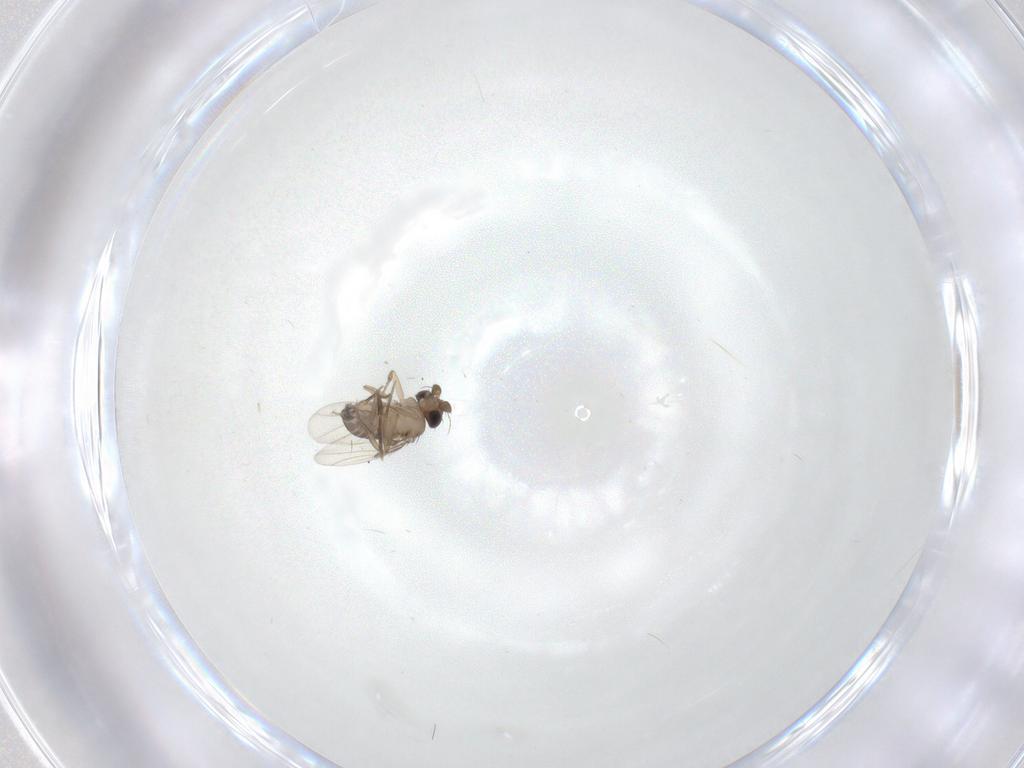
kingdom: Animalia
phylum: Arthropoda
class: Insecta
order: Diptera
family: Phoridae
